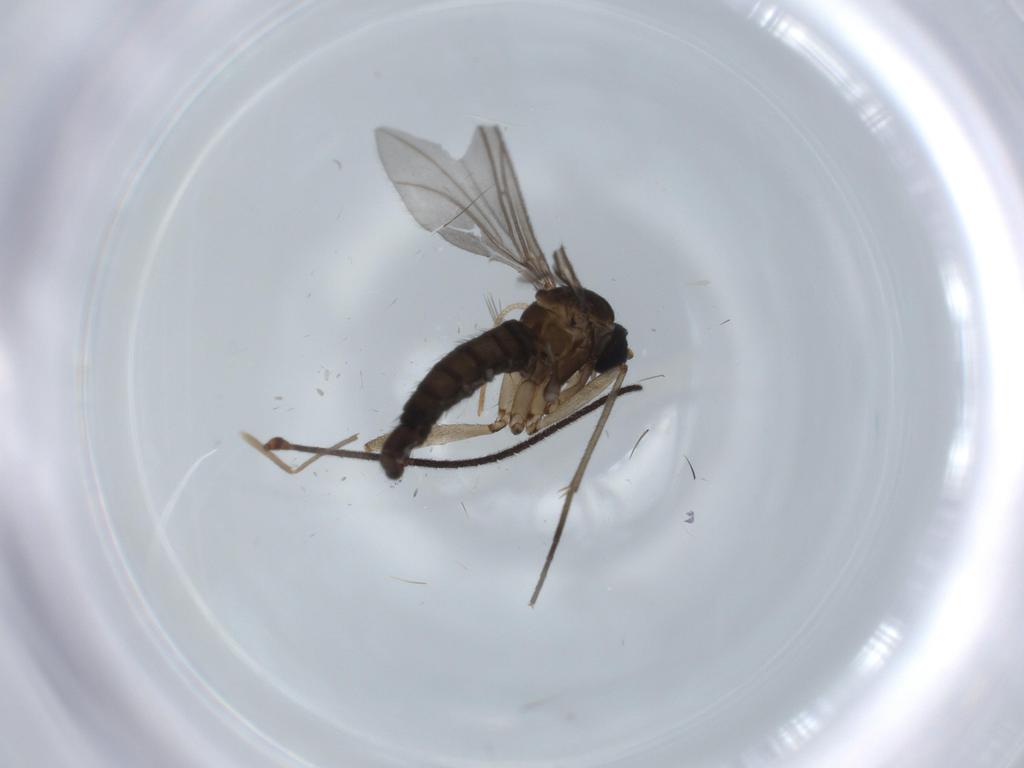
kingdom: Animalia
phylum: Arthropoda
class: Insecta
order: Diptera
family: Sciaridae
